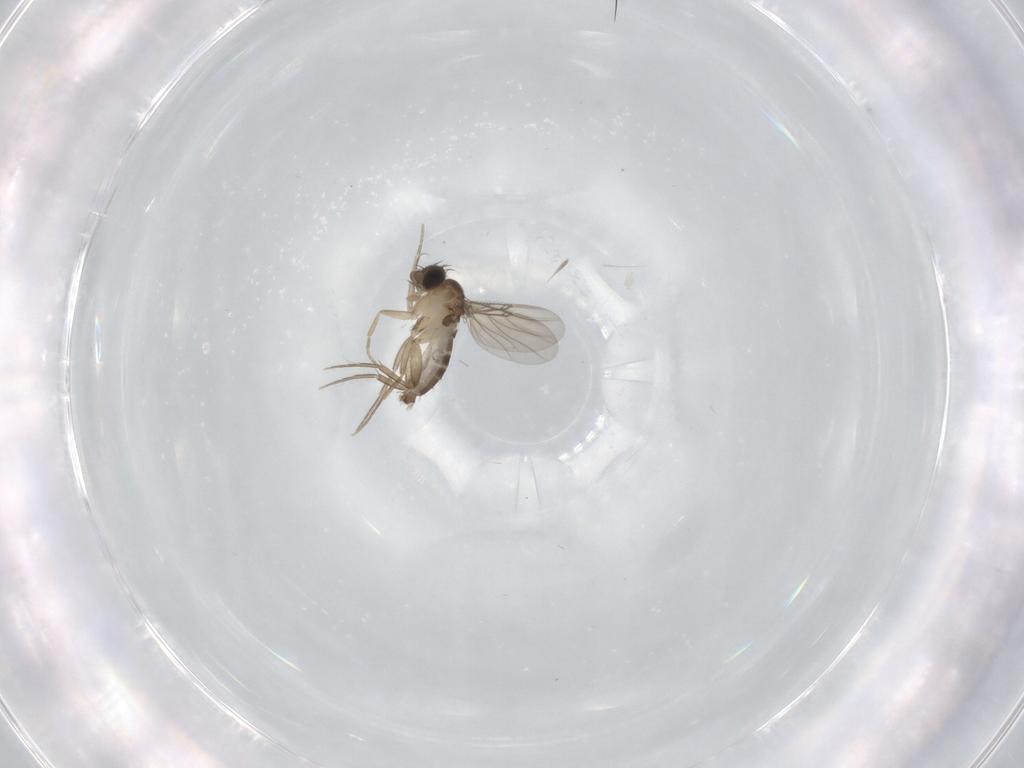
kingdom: Animalia
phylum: Arthropoda
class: Insecta
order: Diptera
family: Phoridae
